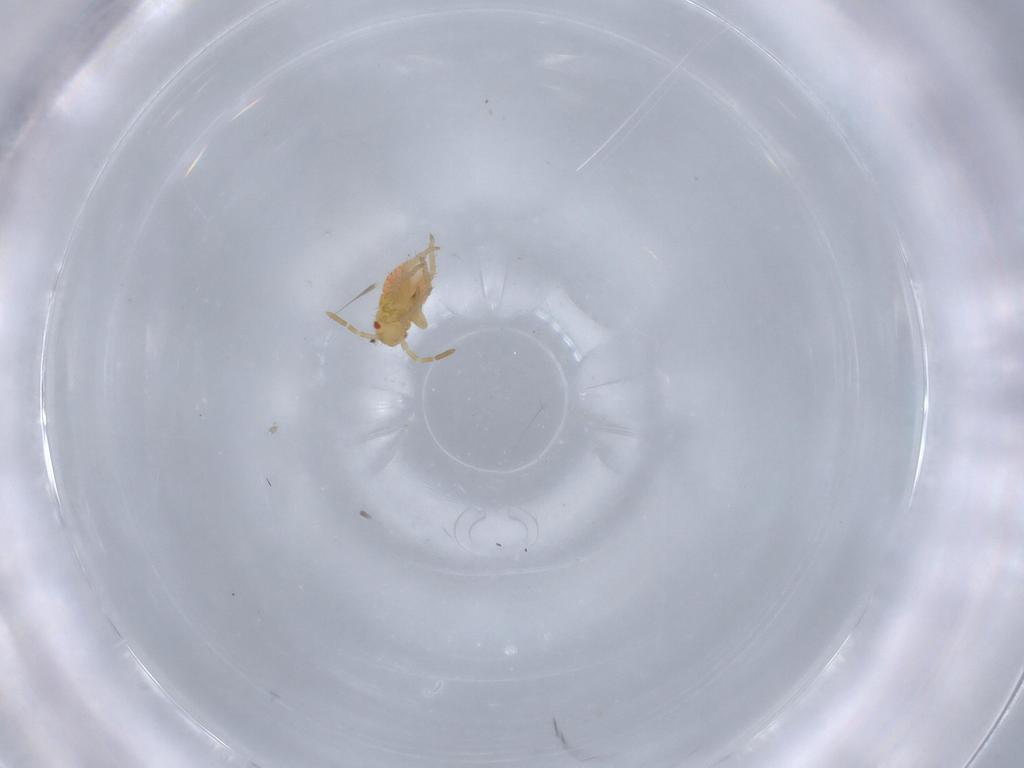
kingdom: Animalia
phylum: Arthropoda
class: Insecta
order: Hemiptera
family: Miridae
